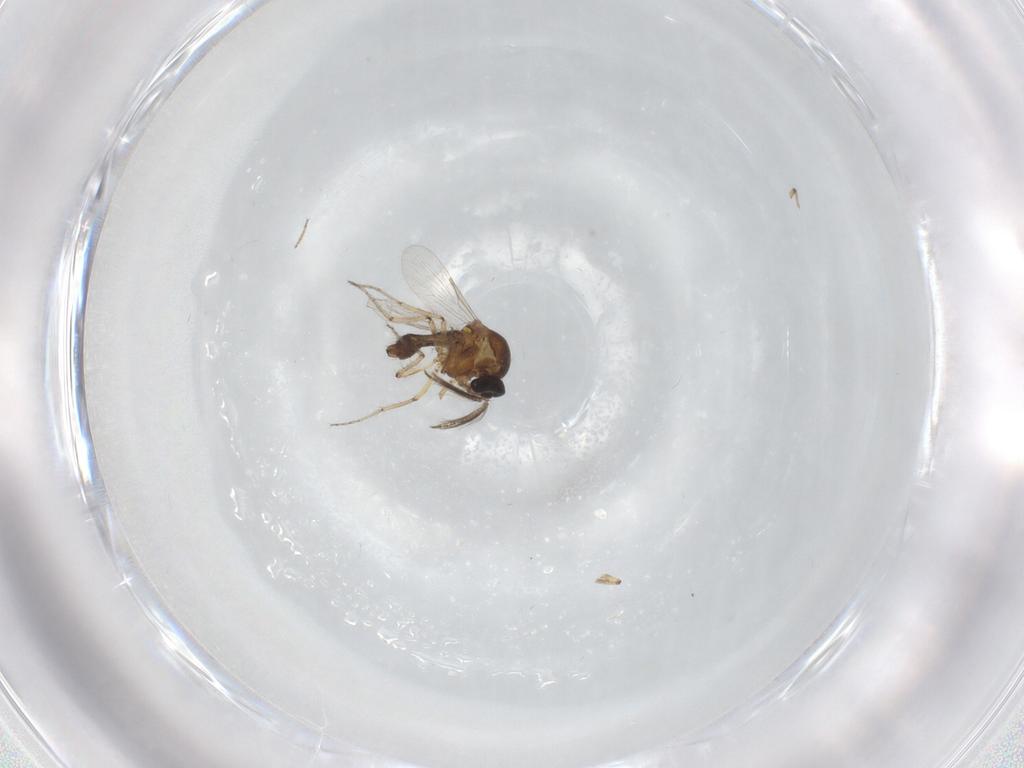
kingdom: Animalia
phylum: Arthropoda
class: Insecta
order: Diptera
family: Ceratopogonidae
